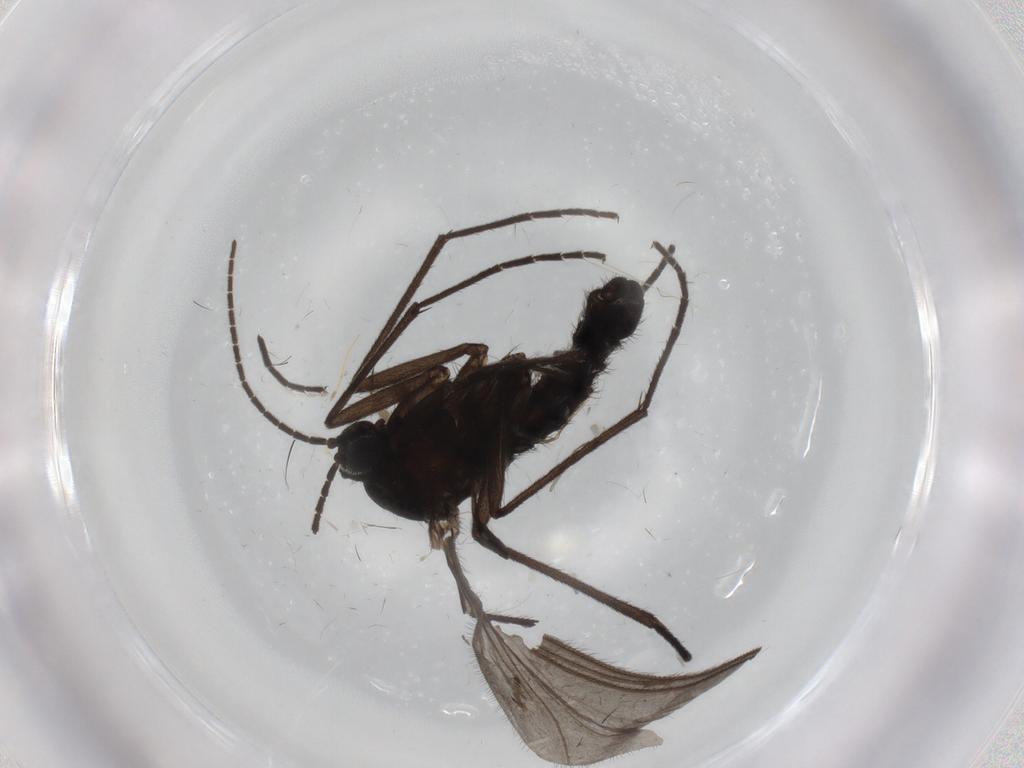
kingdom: Animalia
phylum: Arthropoda
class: Insecta
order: Diptera
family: Sciaridae
